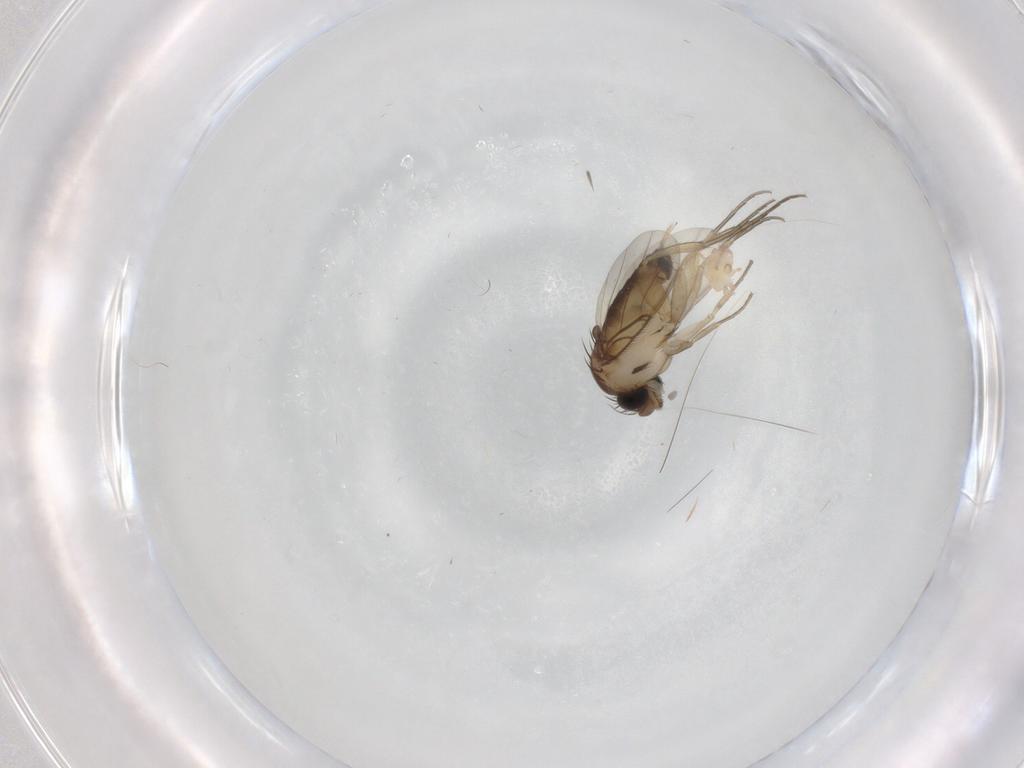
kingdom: Animalia
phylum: Arthropoda
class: Insecta
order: Diptera
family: Phoridae
